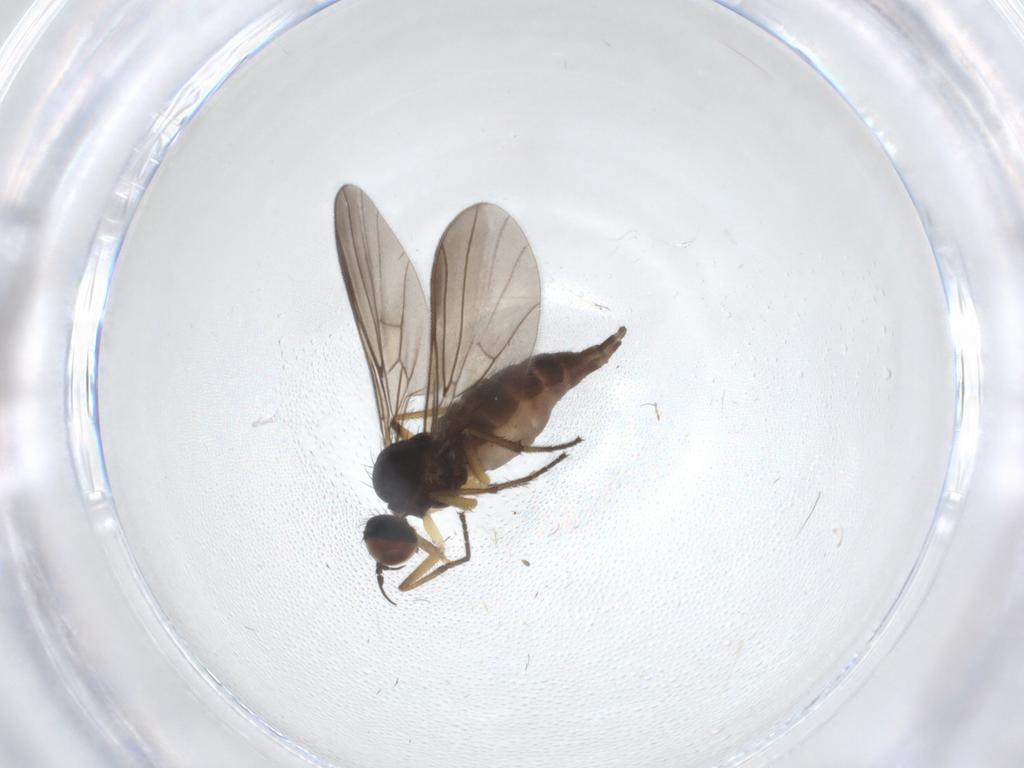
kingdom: Animalia
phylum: Arthropoda
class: Insecta
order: Diptera
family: Empididae
